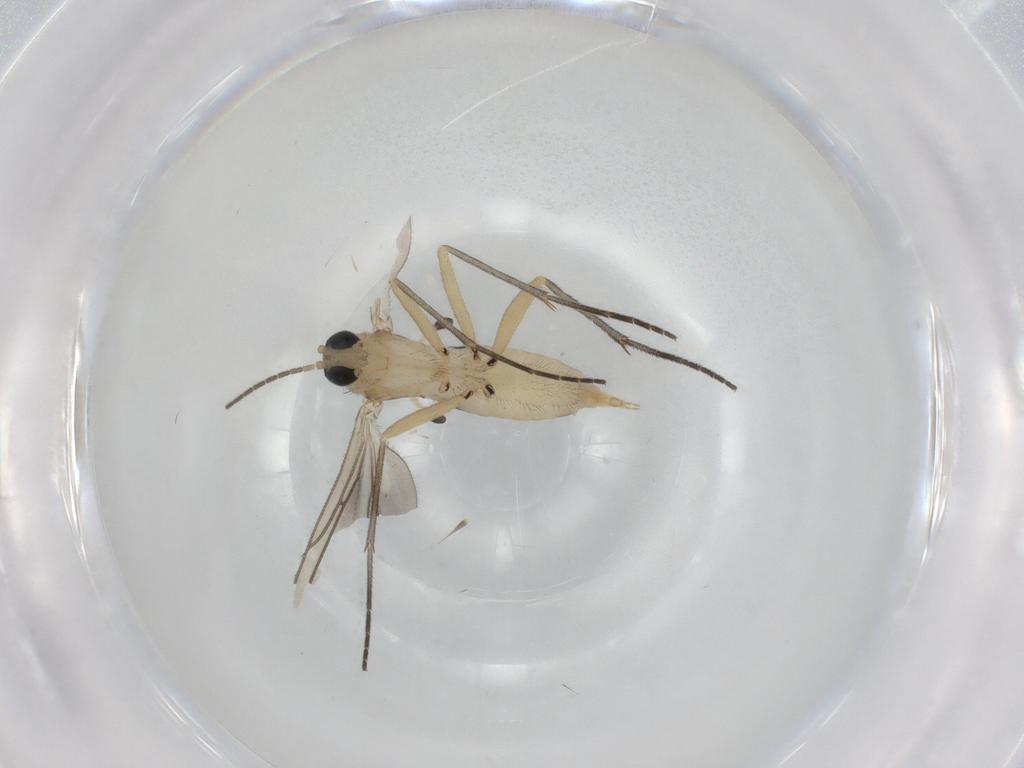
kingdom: Animalia
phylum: Arthropoda
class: Insecta
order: Diptera
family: Sciaridae
